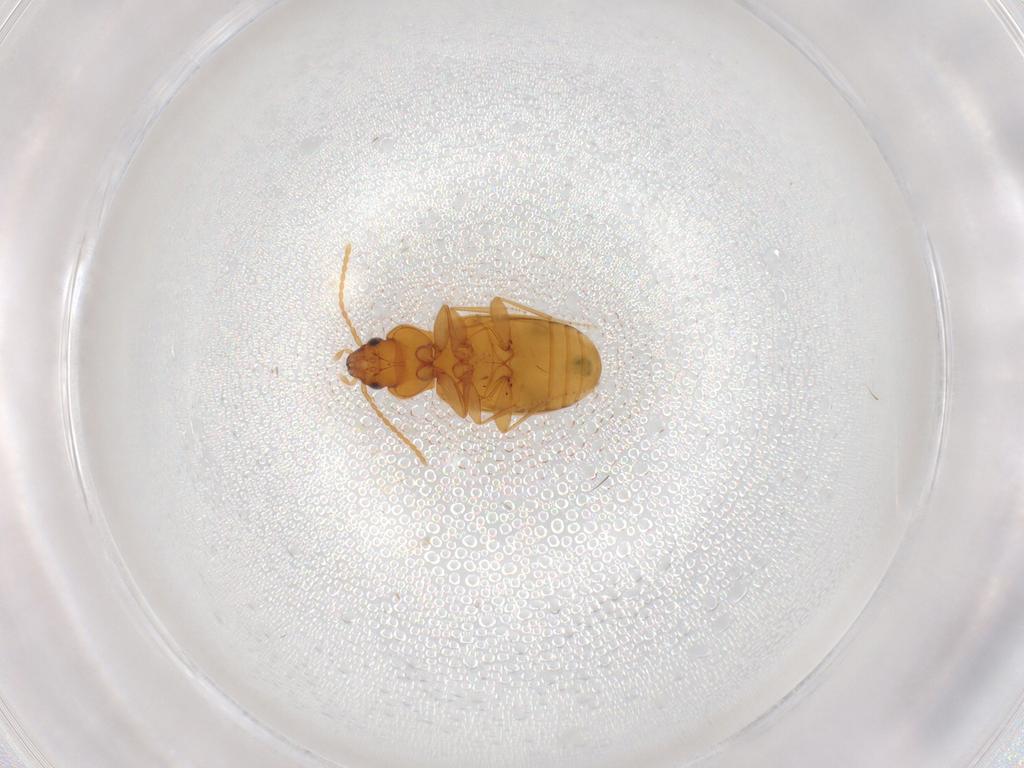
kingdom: Animalia
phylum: Arthropoda
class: Insecta
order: Coleoptera
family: Carabidae
